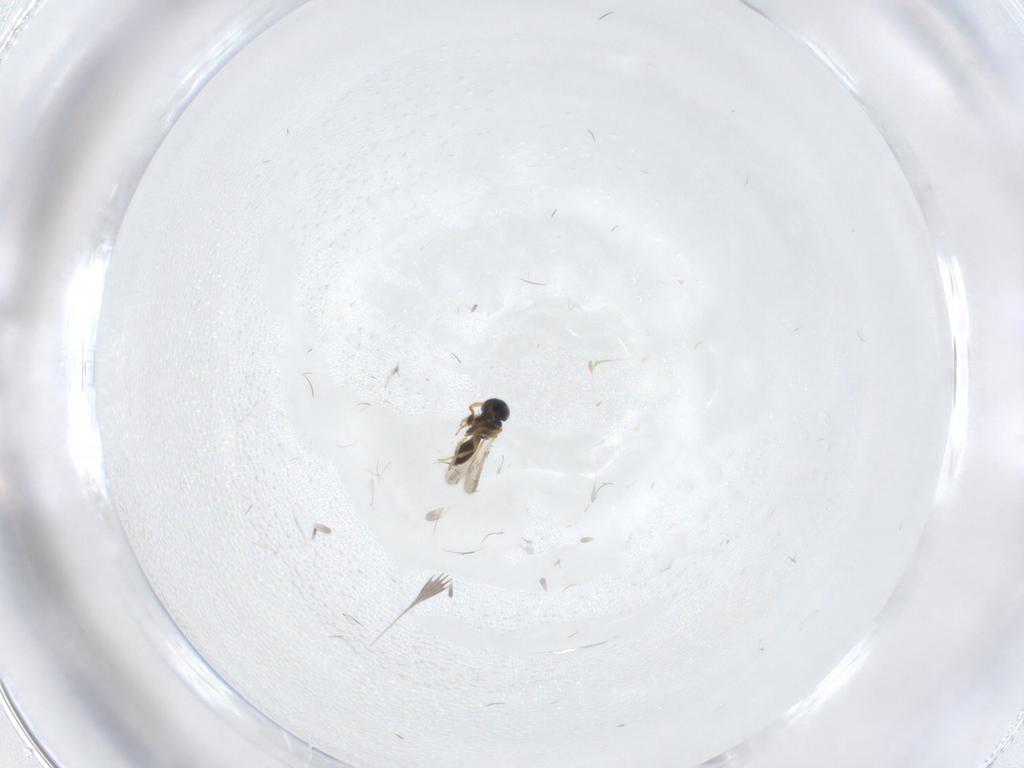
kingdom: Animalia
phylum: Arthropoda
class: Insecta
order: Hymenoptera
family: Scelionidae
